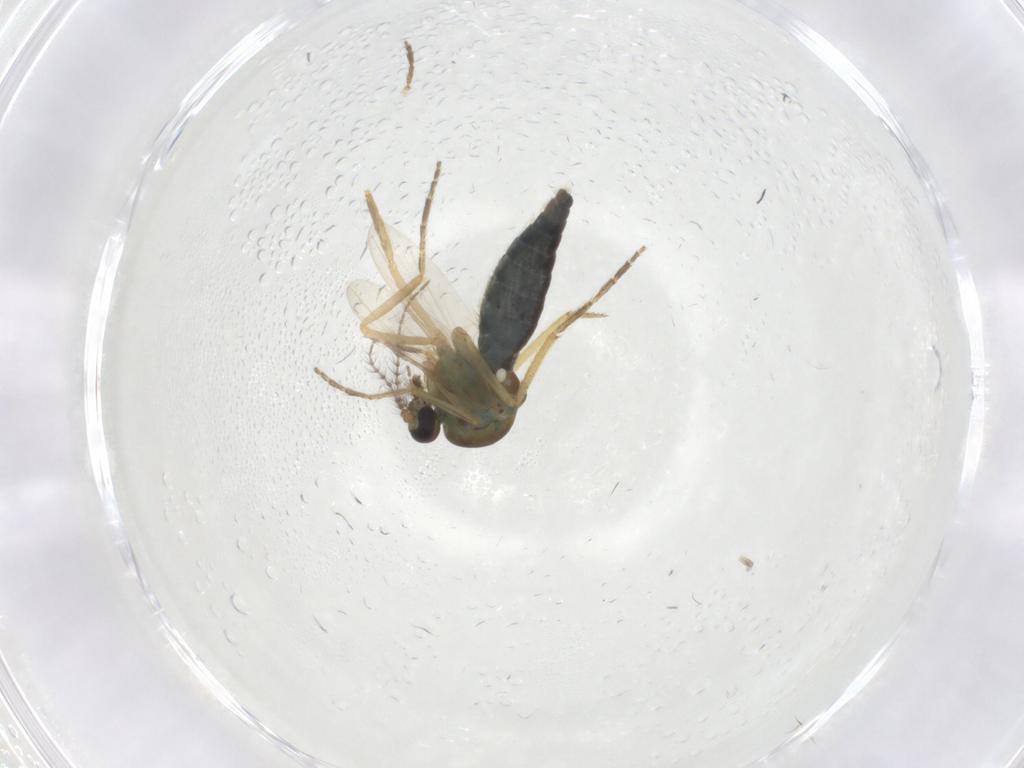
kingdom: Animalia
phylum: Arthropoda
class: Insecta
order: Diptera
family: Ceratopogonidae
